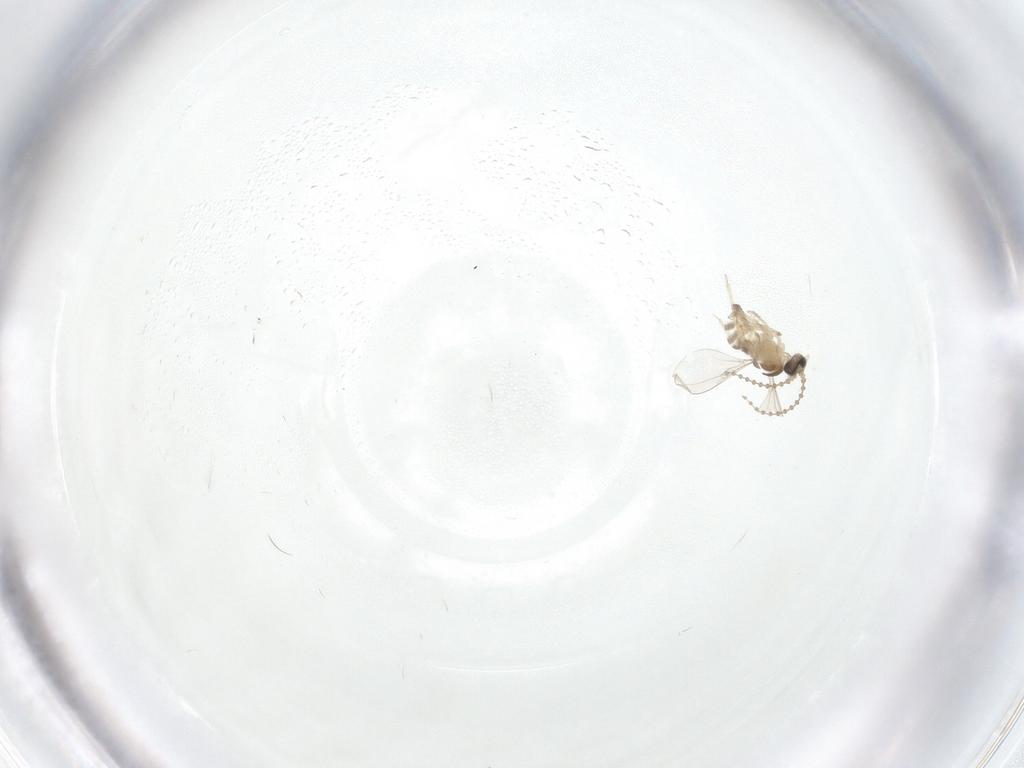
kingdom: Animalia
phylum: Arthropoda
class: Insecta
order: Diptera
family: Cecidomyiidae
